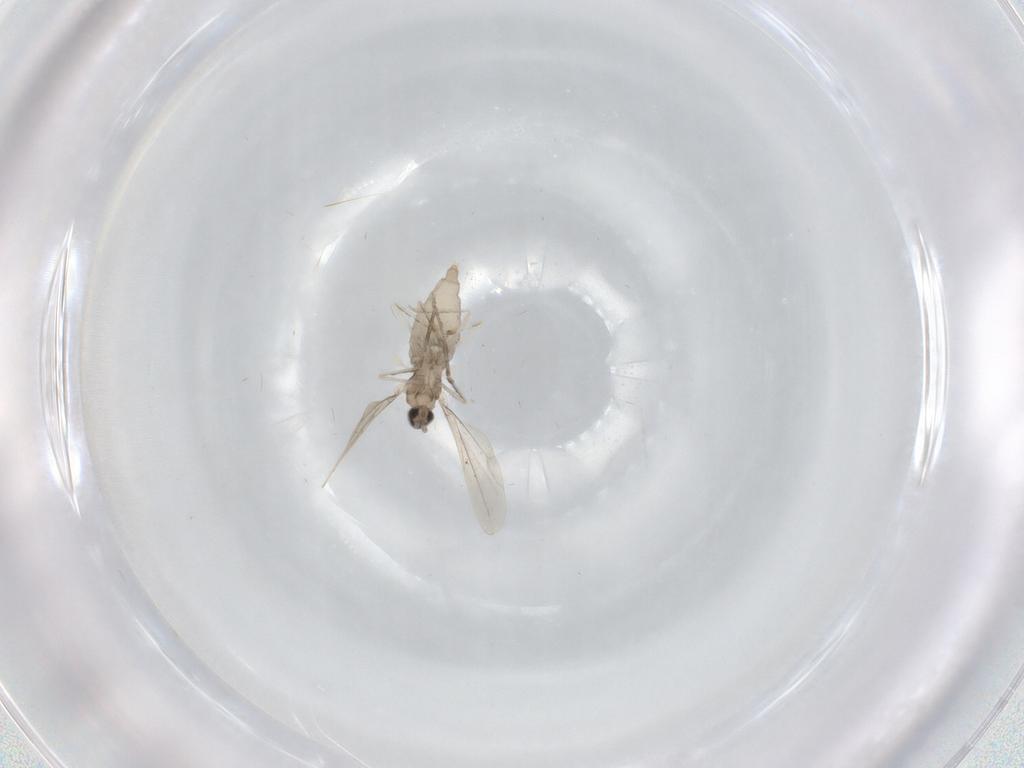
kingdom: Animalia
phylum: Arthropoda
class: Insecta
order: Diptera
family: Cecidomyiidae
